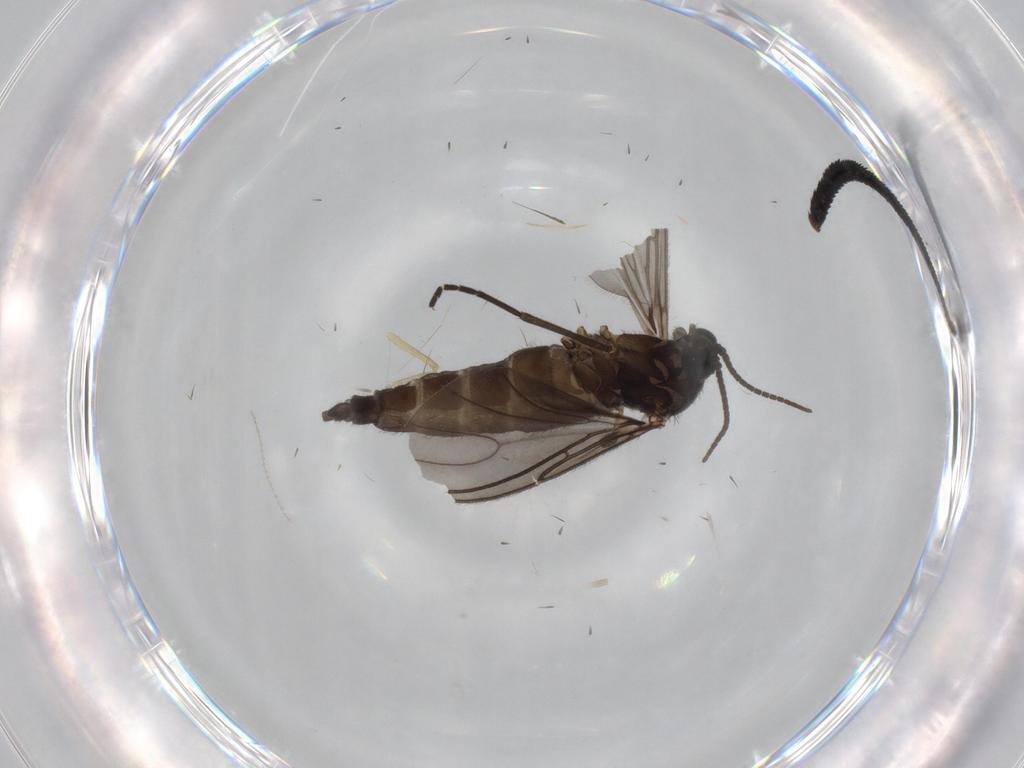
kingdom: Animalia
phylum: Arthropoda
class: Insecta
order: Diptera
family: Sciaridae
